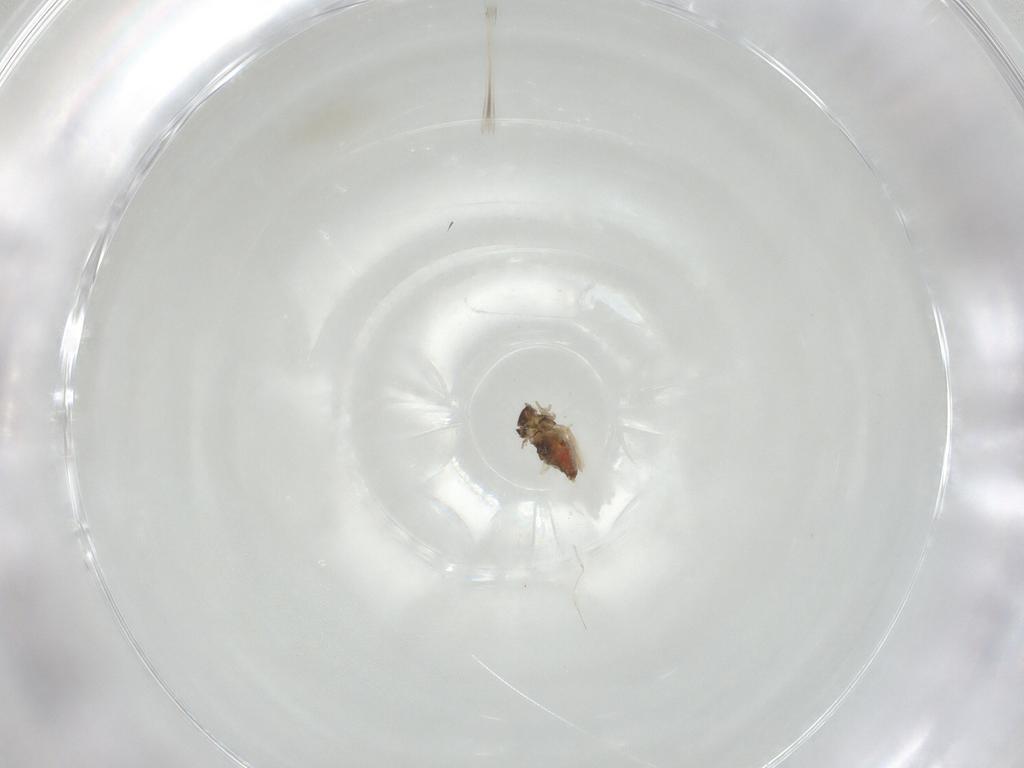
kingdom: Animalia
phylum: Arthropoda
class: Insecta
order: Diptera
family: Cecidomyiidae
